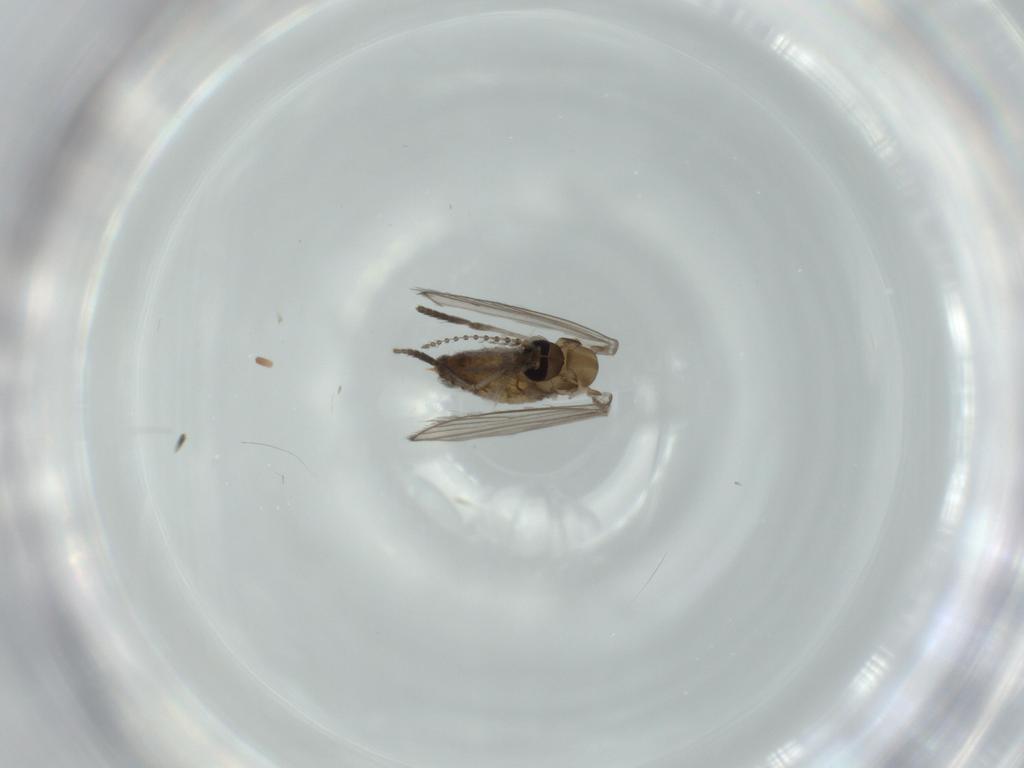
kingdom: Animalia
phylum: Arthropoda
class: Insecta
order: Diptera
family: Psychodidae
